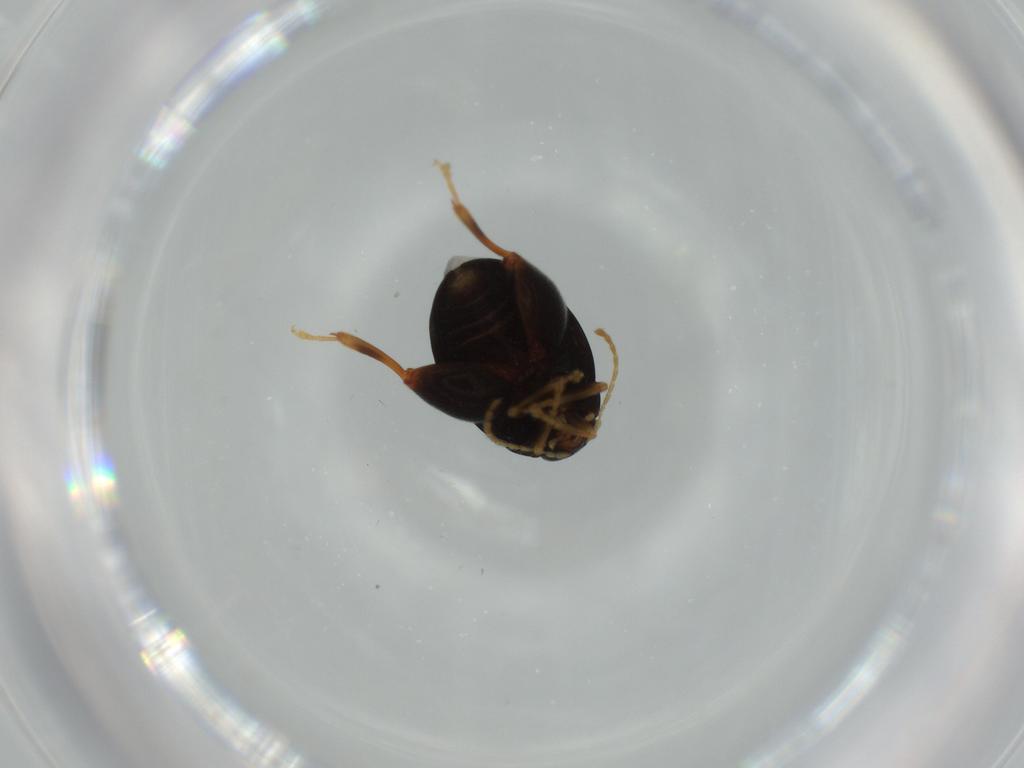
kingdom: Animalia
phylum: Arthropoda
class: Insecta
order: Coleoptera
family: Chrysomelidae
